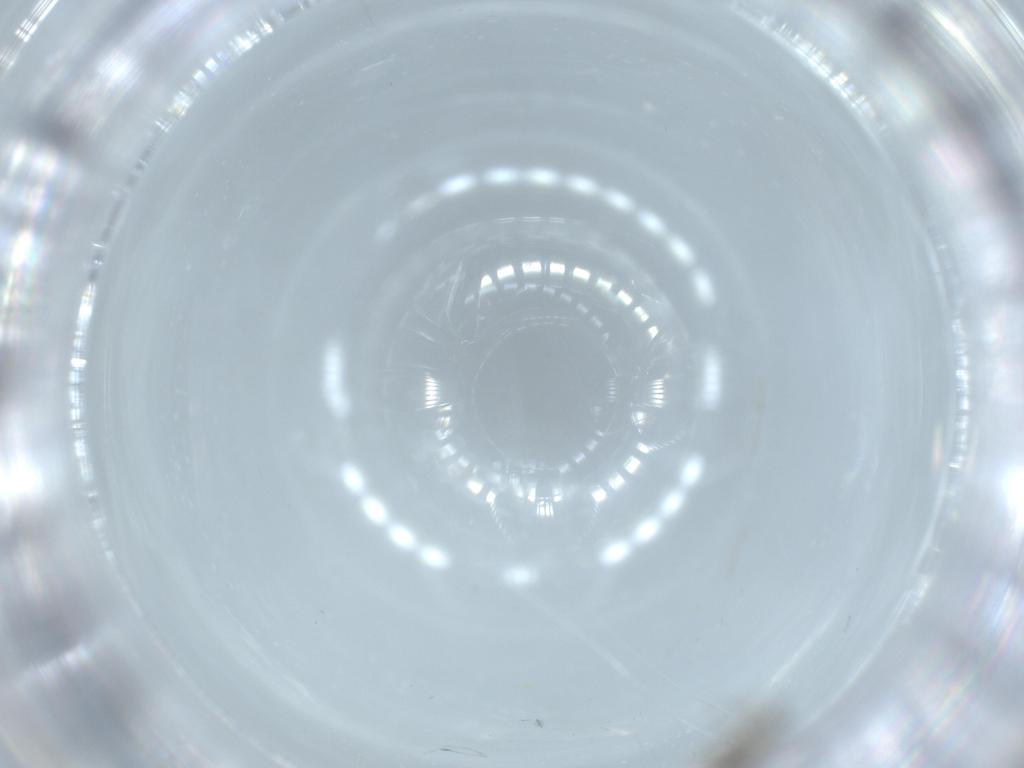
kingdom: Animalia
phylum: Arthropoda
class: Insecta
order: Diptera
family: Chironomidae
